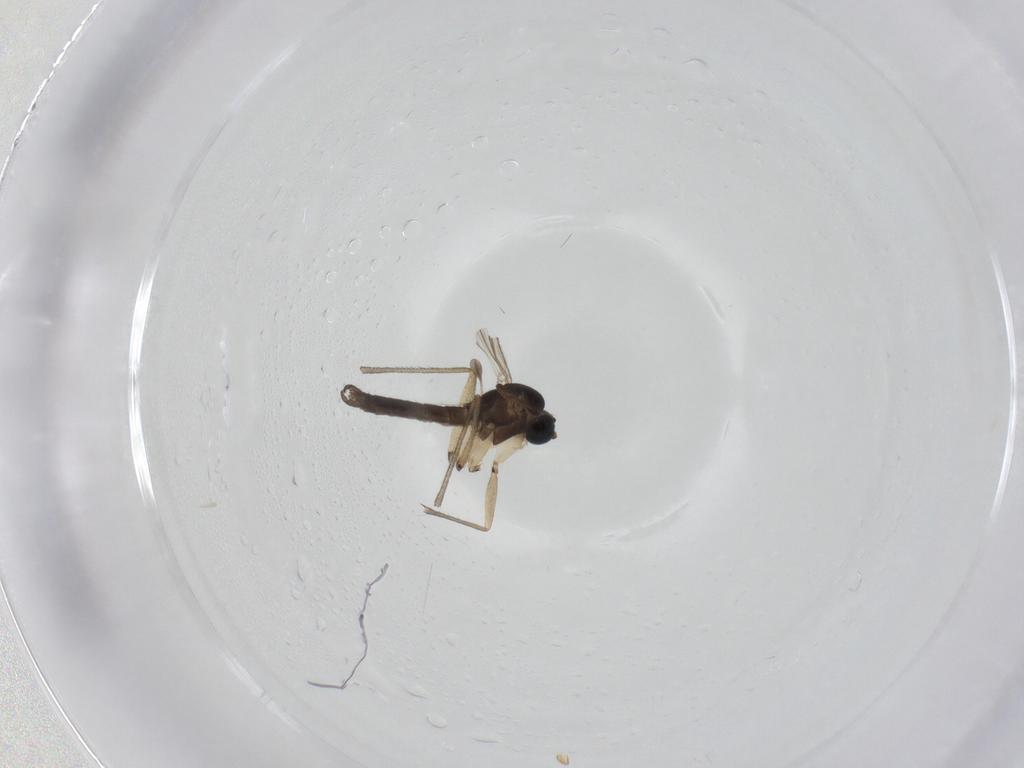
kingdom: Animalia
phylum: Arthropoda
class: Insecta
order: Diptera
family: Sciaridae
